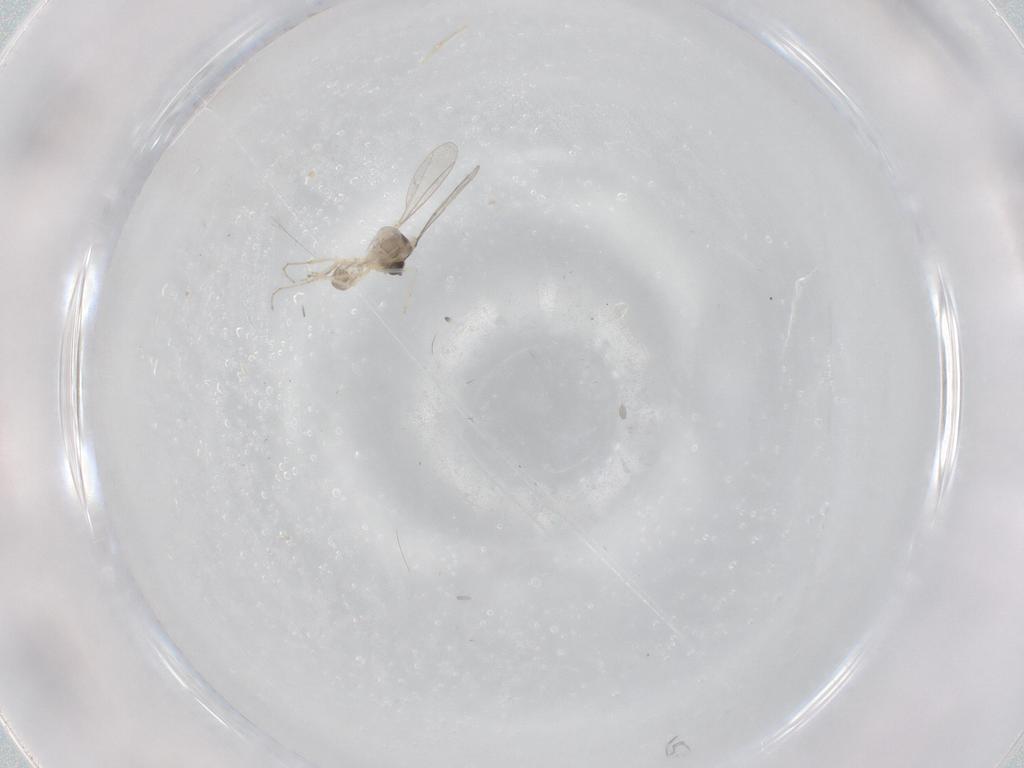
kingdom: Animalia
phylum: Arthropoda
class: Insecta
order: Diptera
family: Cecidomyiidae
